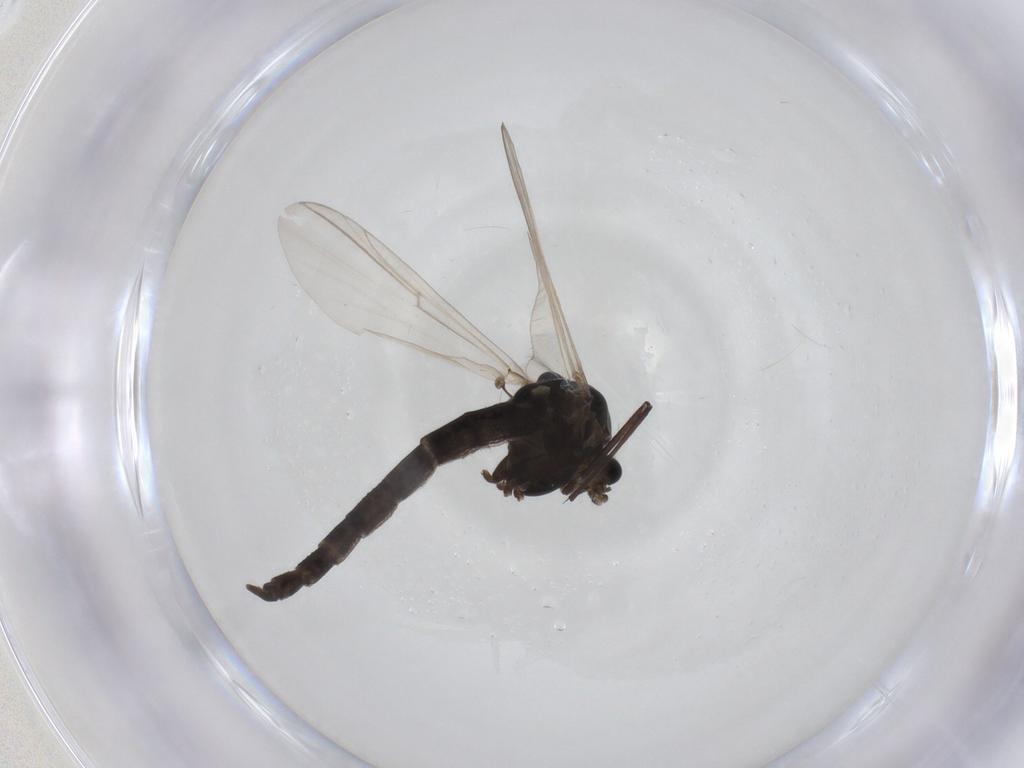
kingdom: Animalia
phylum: Arthropoda
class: Insecta
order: Diptera
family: Chironomidae
